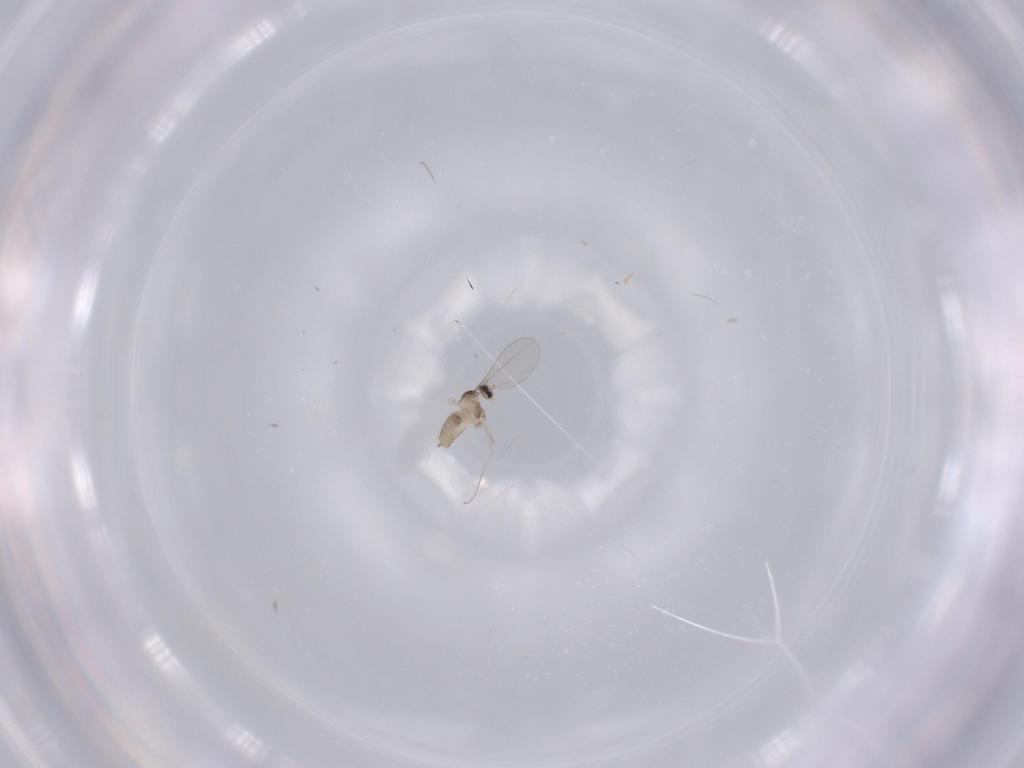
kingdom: Animalia
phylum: Arthropoda
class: Insecta
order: Diptera
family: Cecidomyiidae
